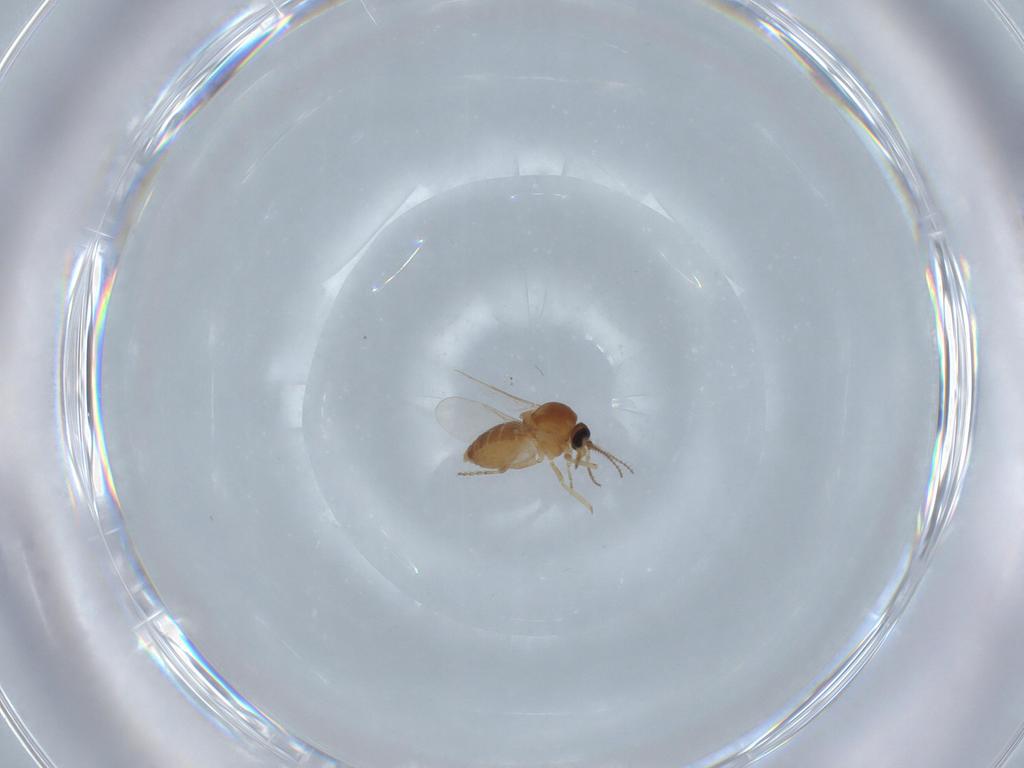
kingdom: Animalia
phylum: Arthropoda
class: Insecta
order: Diptera
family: Ceratopogonidae
